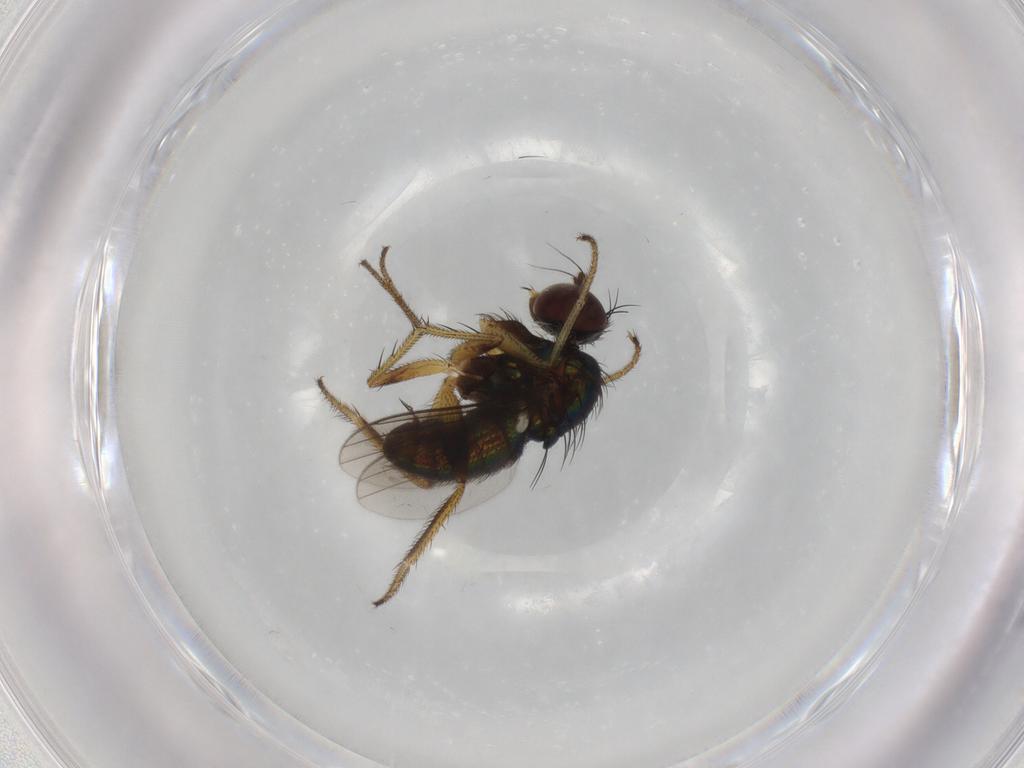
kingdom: Animalia
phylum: Arthropoda
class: Insecta
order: Diptera
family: Dolichopodidae
